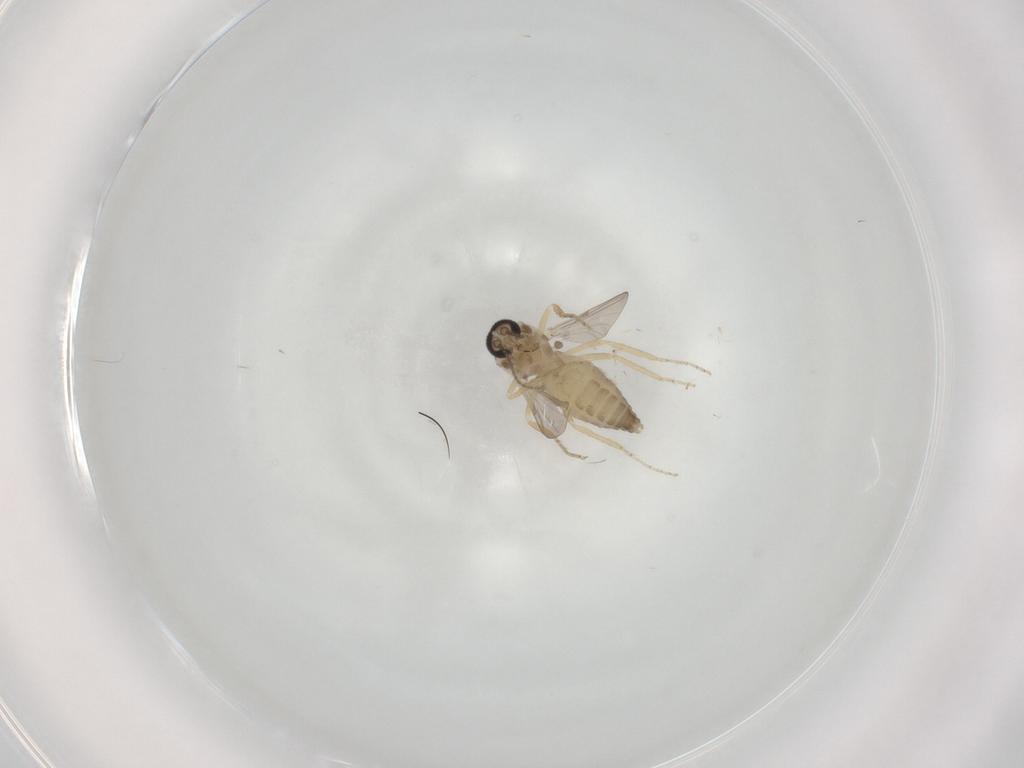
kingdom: Animalia
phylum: Arthropoda
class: Insecta
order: Diptera
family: Ceratopogonidae
